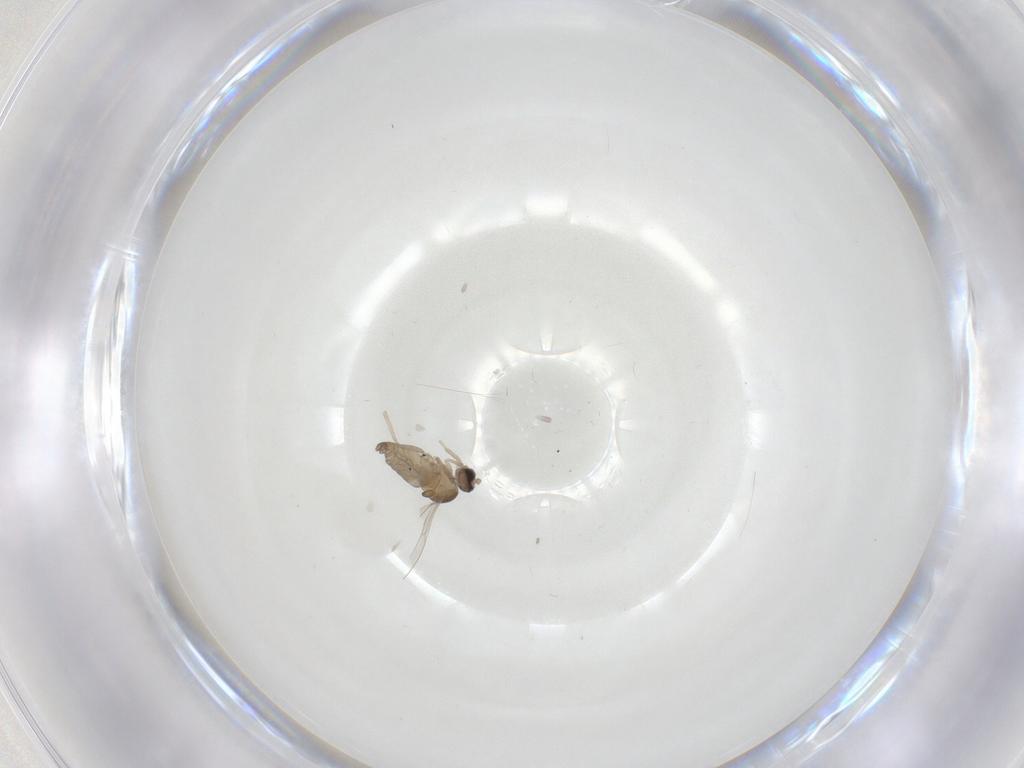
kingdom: Animalia
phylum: Arthropoda
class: Insecta
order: Diptera
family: Cecidomyiidae
